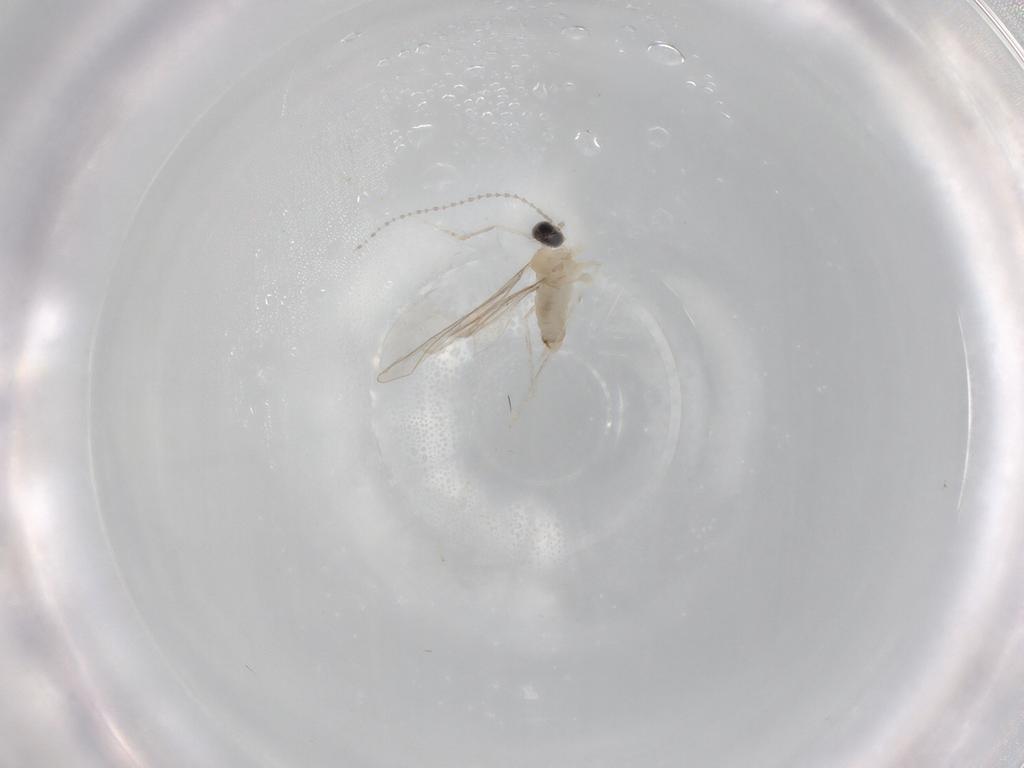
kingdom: Animalia
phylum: Arthropoda
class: Insecta
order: Diptera
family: Cecidomyiidae
